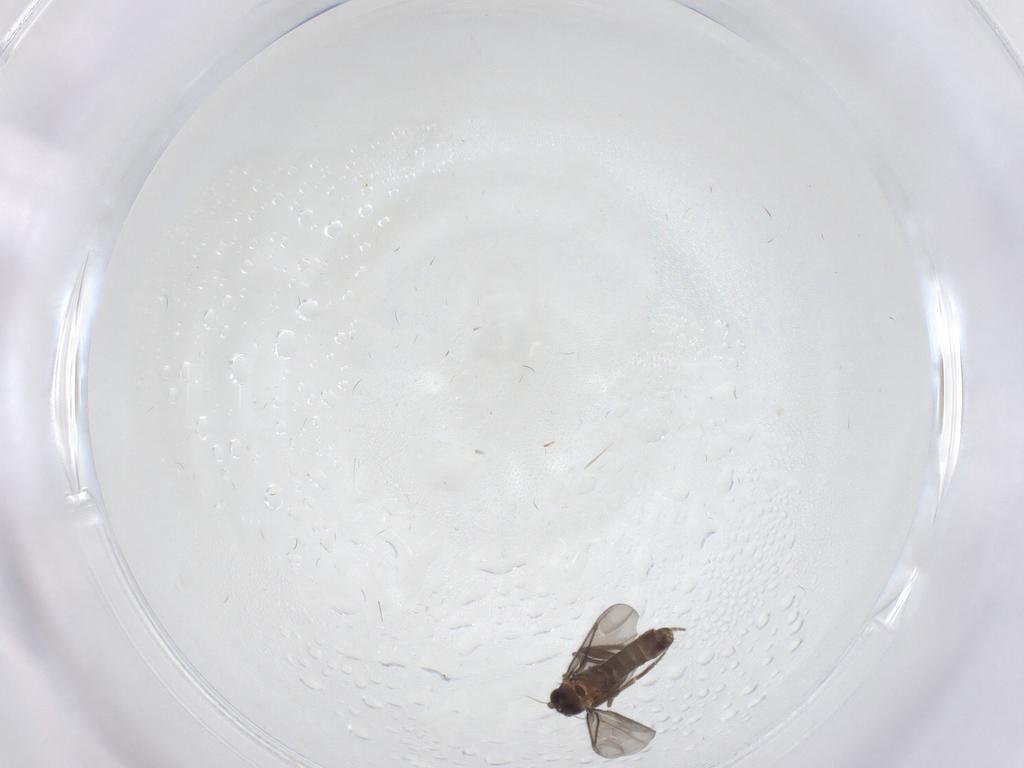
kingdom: Animalia
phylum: Arthropoda
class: Insecta
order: Diptera
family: Phoridae
